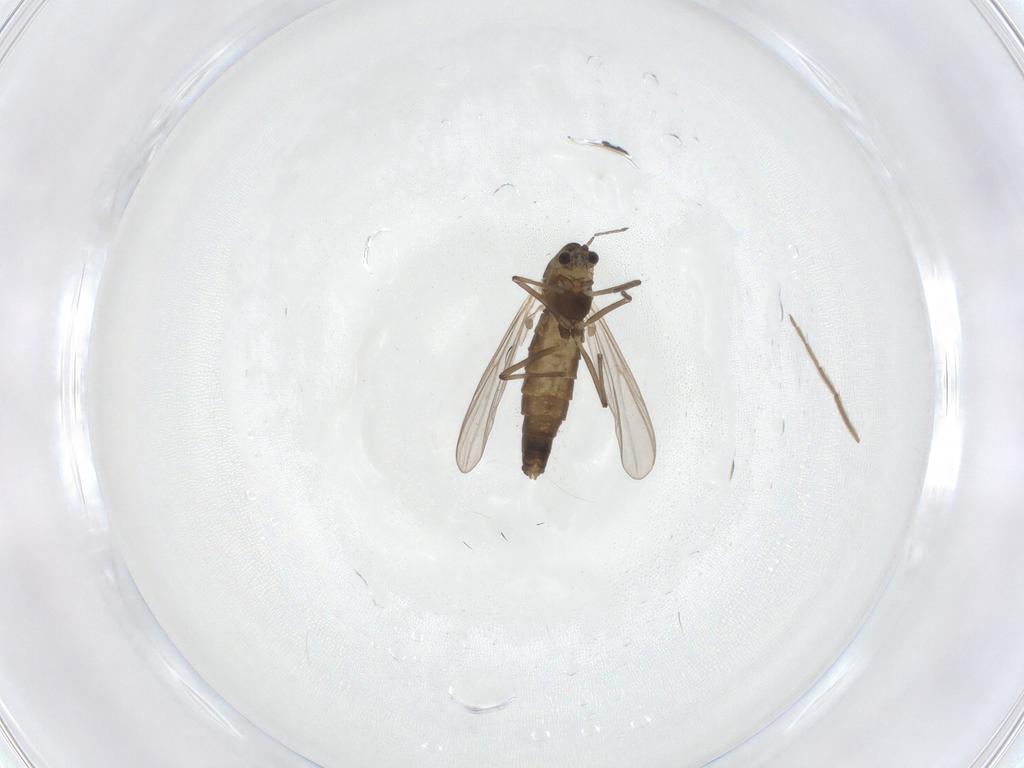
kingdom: Animalia
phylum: Arthropoda
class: Insecta
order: Diptera
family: Chironomidae
